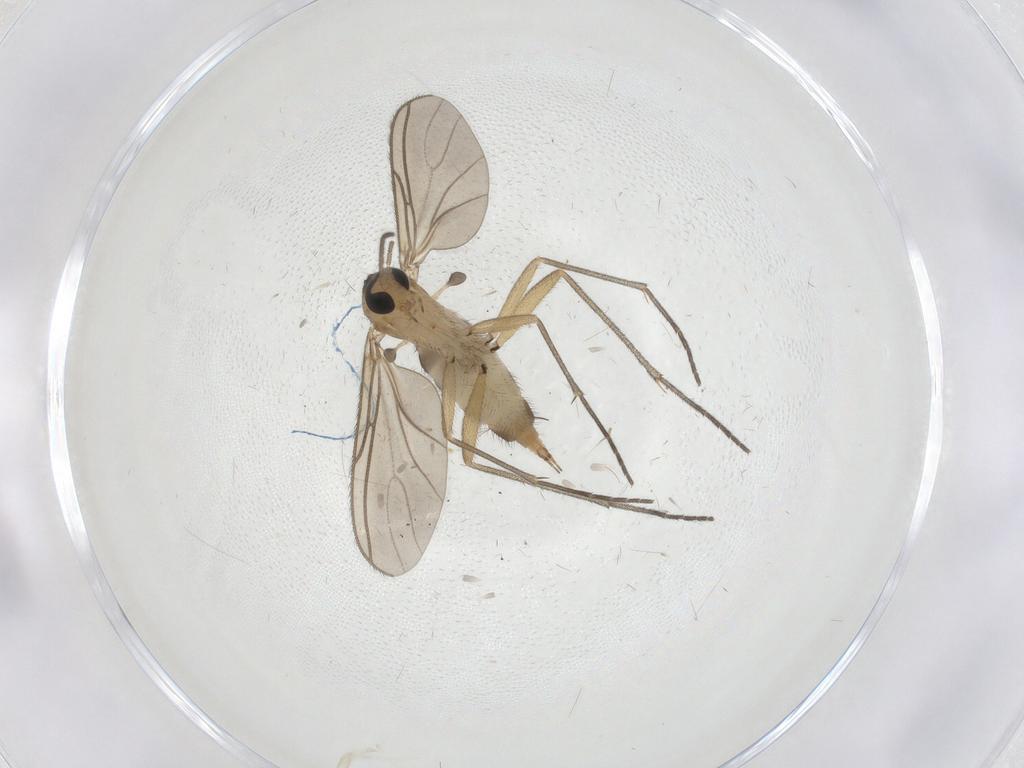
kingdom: Animalia
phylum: Arthropoda
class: Insecta
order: Diptera
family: Sciaridae
